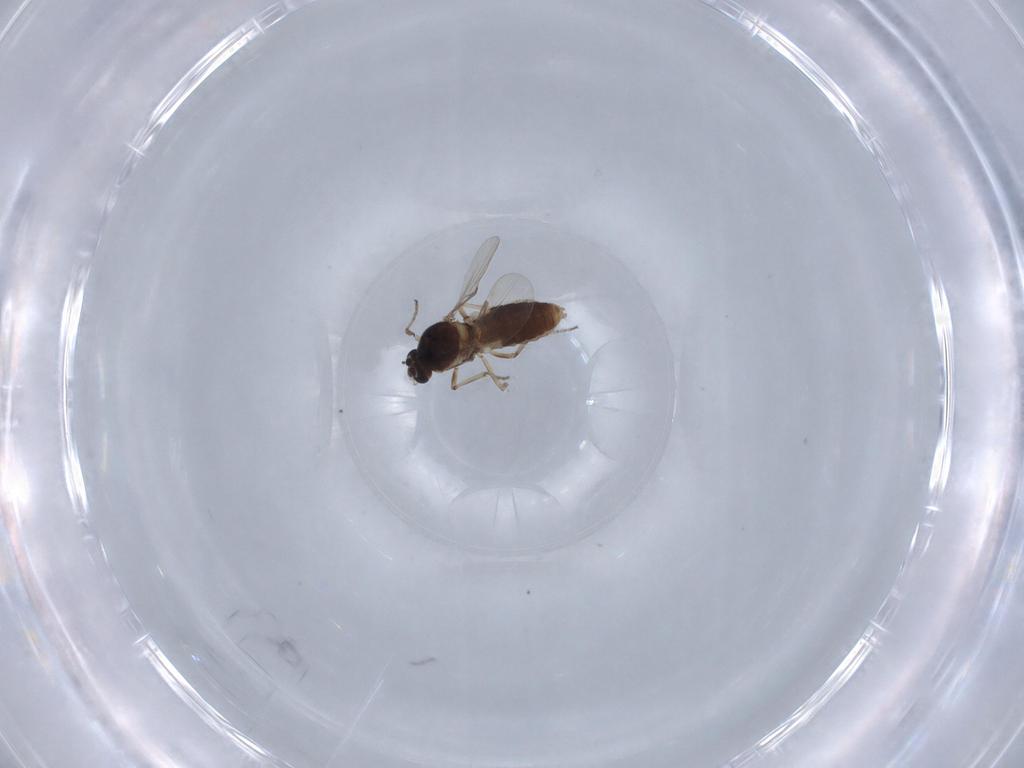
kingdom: Animalia
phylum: Arthropoda
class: Insecta
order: Diptera
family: Ceratopogonidae
